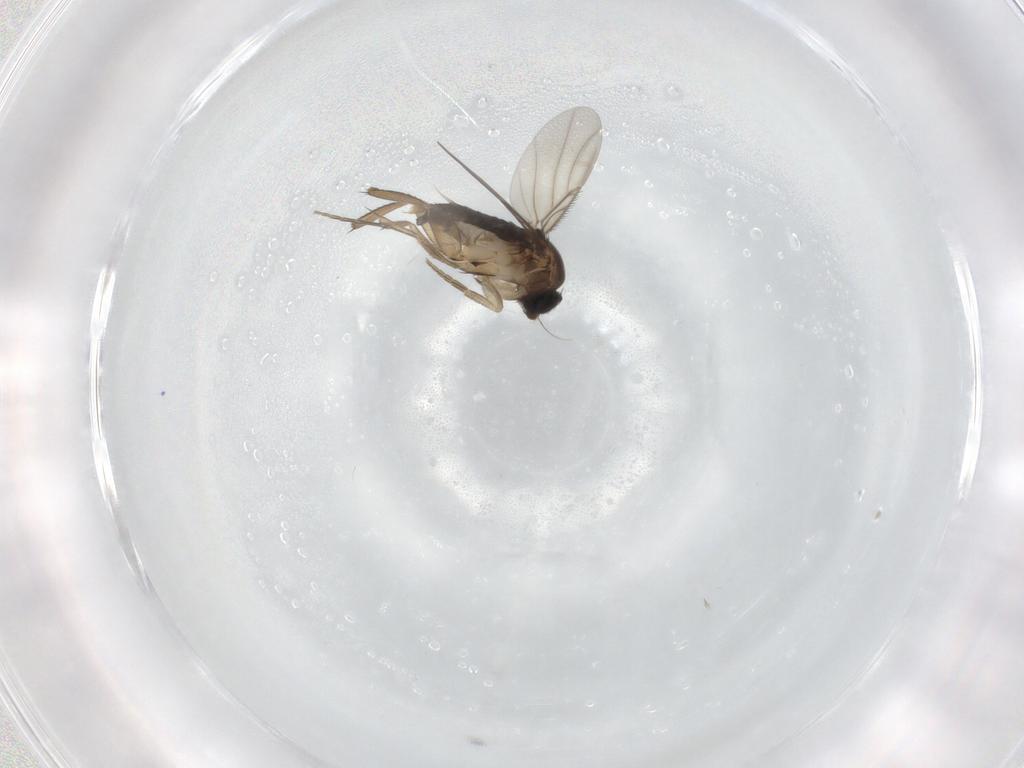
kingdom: Animalia
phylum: Arthropoda
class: Insecta
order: Diptera
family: Phoridae
